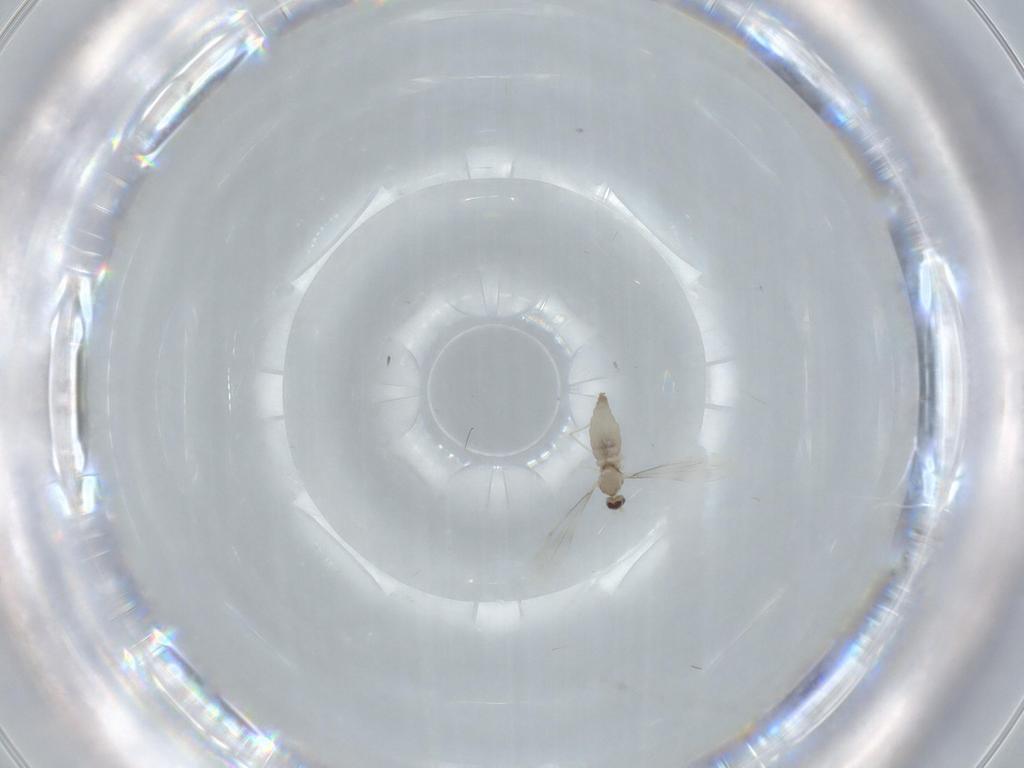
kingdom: Animalia
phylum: Arthropoda
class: Insecta
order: Diptera
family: Cecidomyiidae
